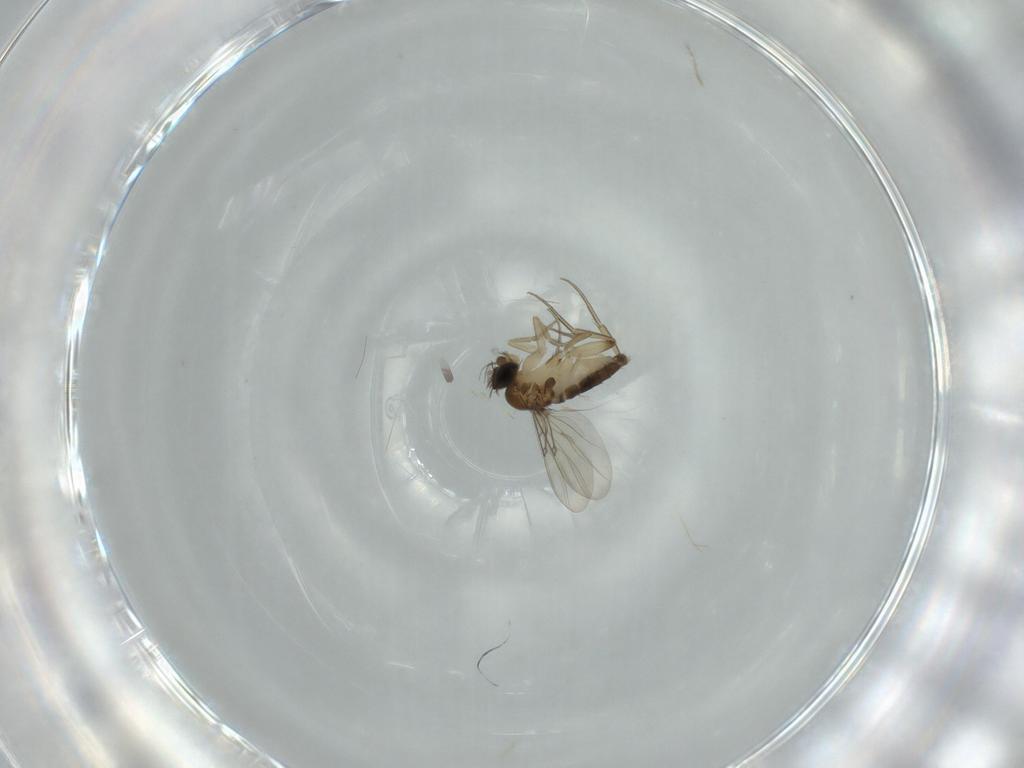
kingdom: Animalia
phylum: Arthropoda
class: Insecta
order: Diptera
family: Phoridae
